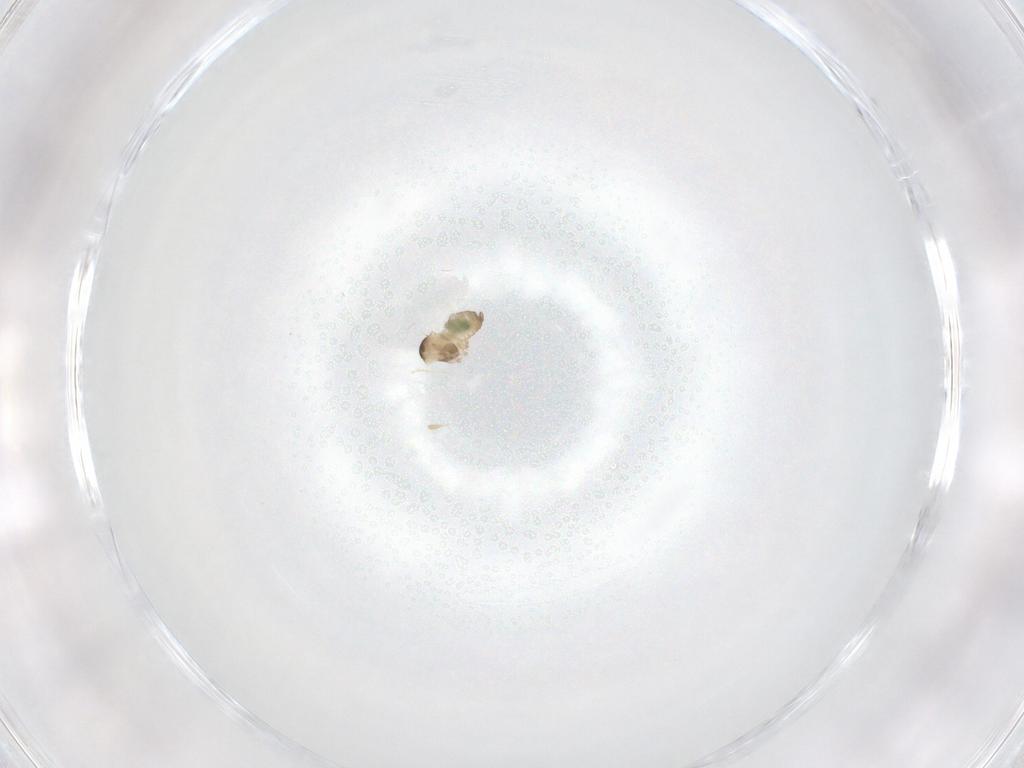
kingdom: Animalia
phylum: Arthropoda
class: Insecta
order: Diptera
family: Cecidomyiidae
